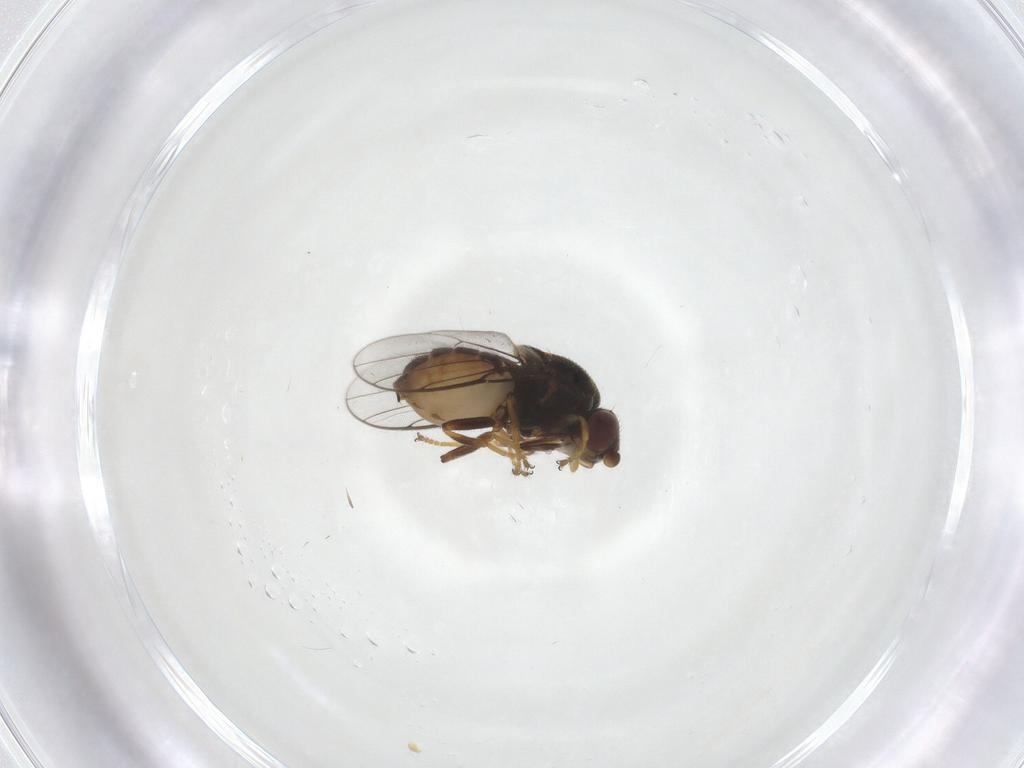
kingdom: Animalia
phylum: Arthropoda
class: Insecta
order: Diptera
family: Chloropidae
